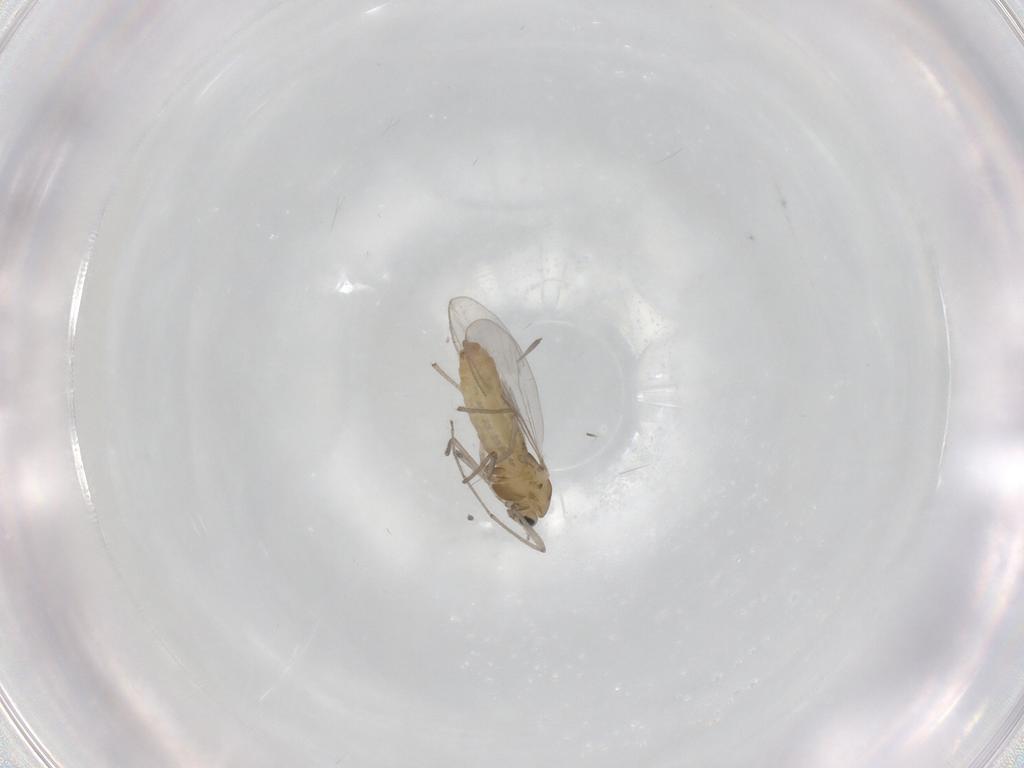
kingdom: Animalia
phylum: Arthropoda
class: Insecta
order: Diptera
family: Chironomidae
